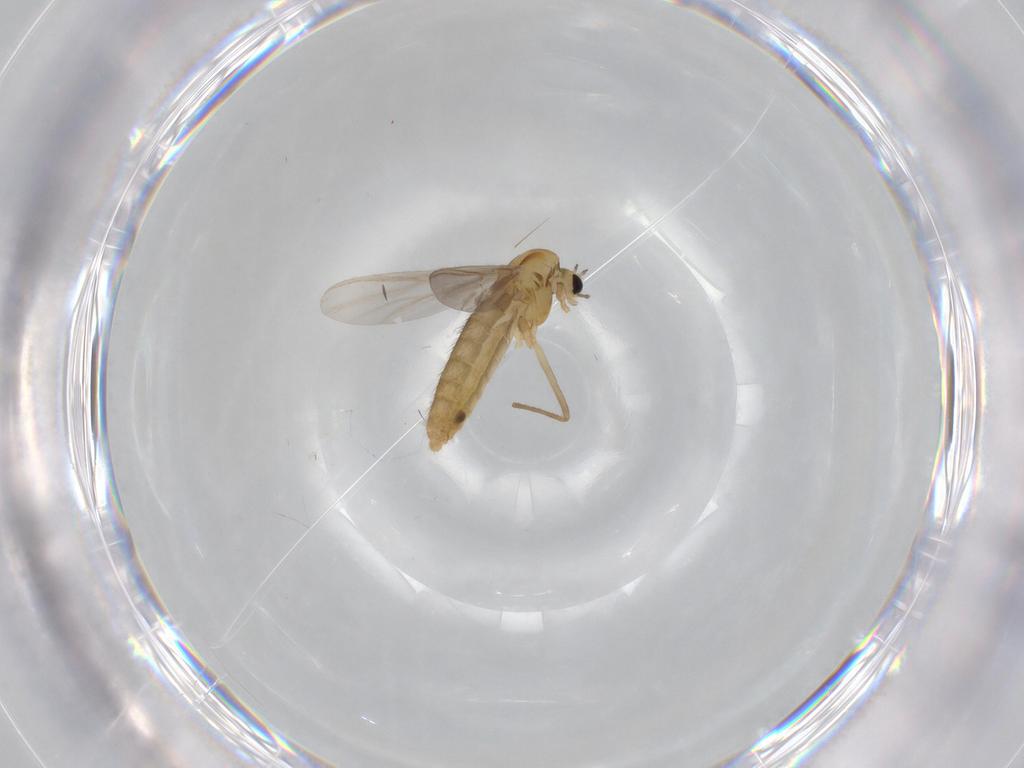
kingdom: Animalia
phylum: Arthropoda
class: Insecta
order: Diptera
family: Chironomidae
